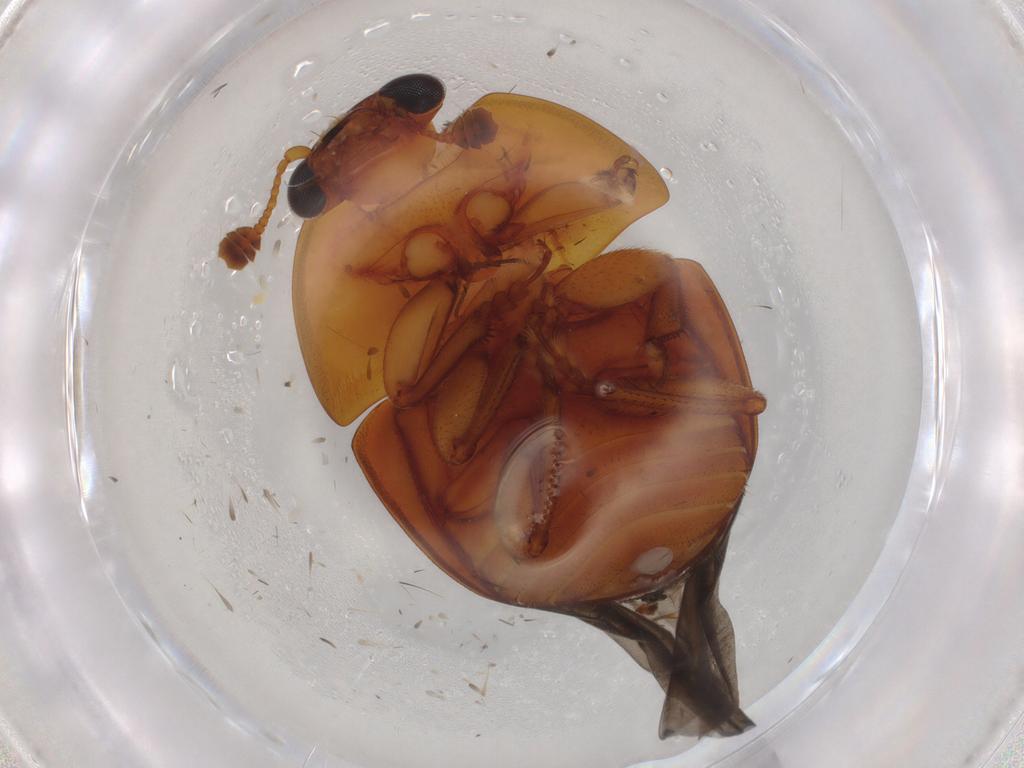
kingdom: Animalia
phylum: Arthropoda
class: Insecta
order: Coleoptera
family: Nitidulidae
